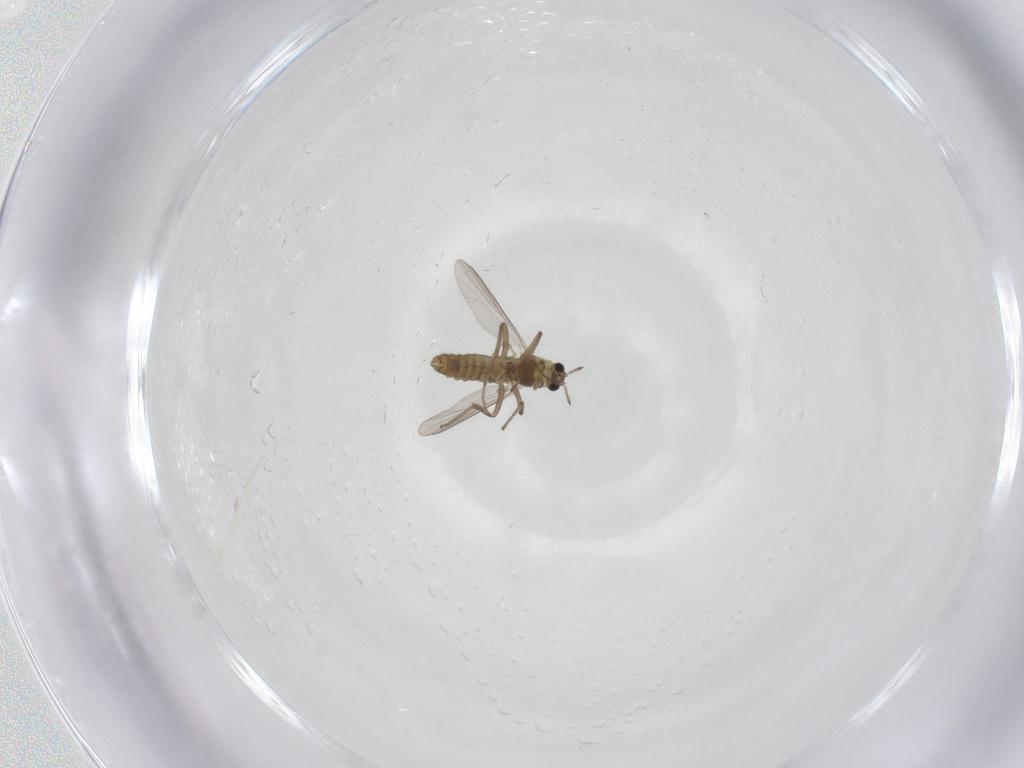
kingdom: Animalia
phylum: Arthropoda
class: Insecta
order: Diptera
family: Chironomidae
